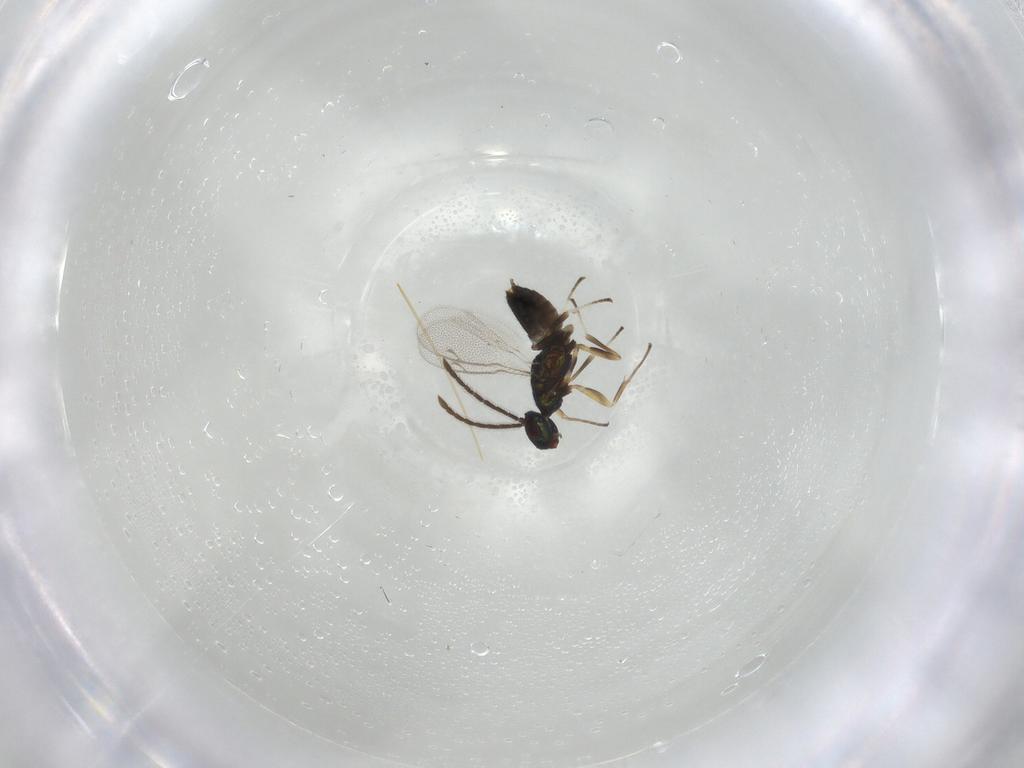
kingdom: Animalia
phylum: Arthropoda
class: Insecta
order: Hymenoptera
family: Eupelmidae
